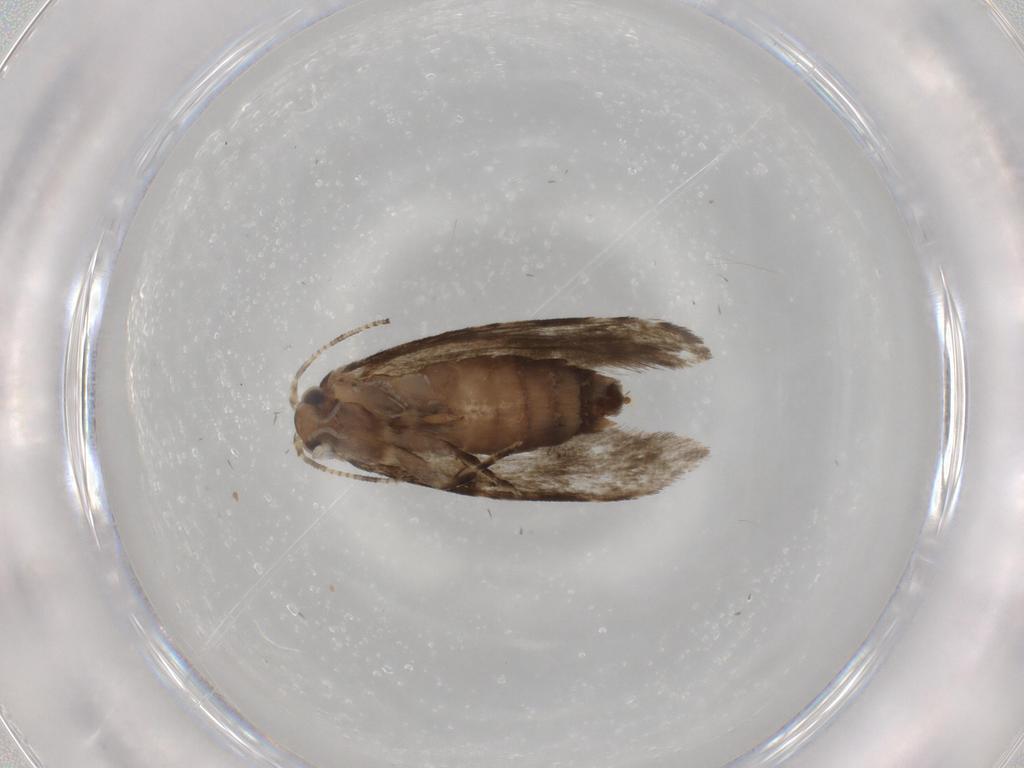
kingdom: Animalia
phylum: Arthropoda
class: Insecta
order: Lepidoptera
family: Tineidae
